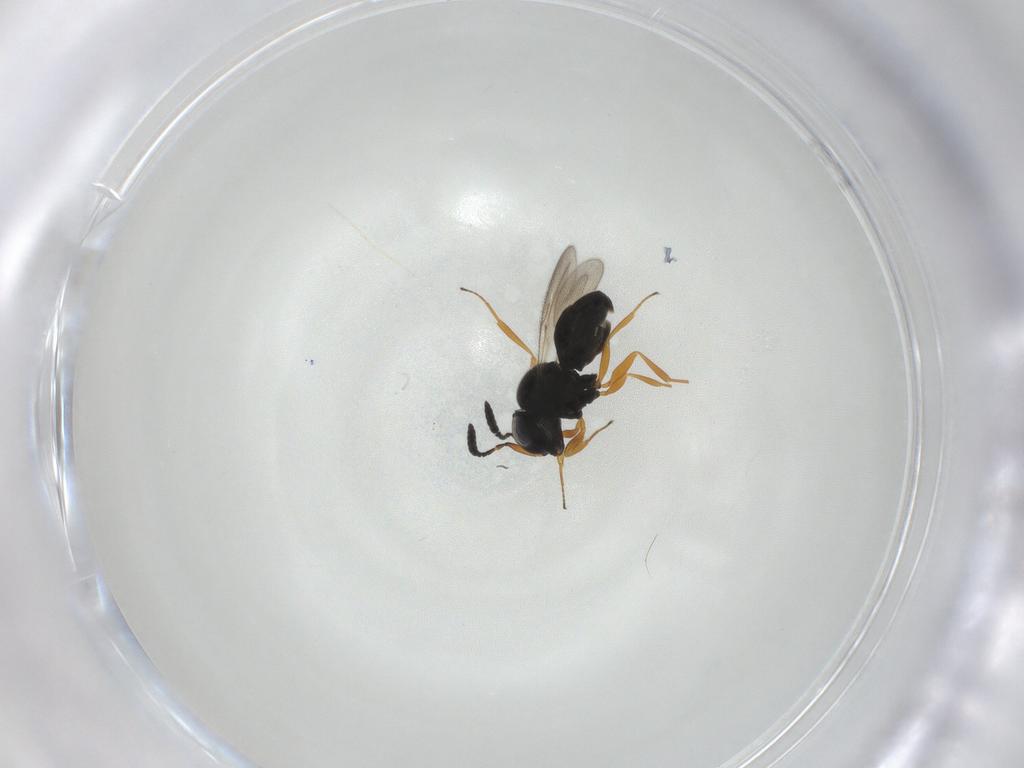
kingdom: Animalia
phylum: Arthropoda
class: Insecta
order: Hymenoptera
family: Scelionidae
